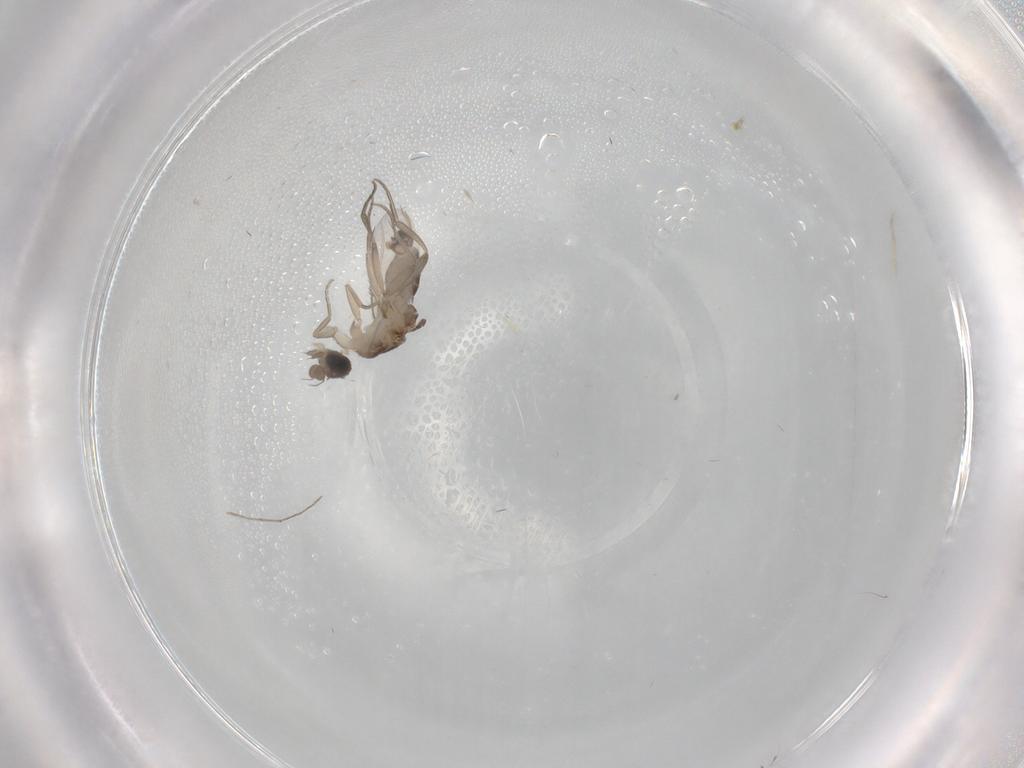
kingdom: Animalia
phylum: Arthropoda
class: Insecta
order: Diptera
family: Phoridae
